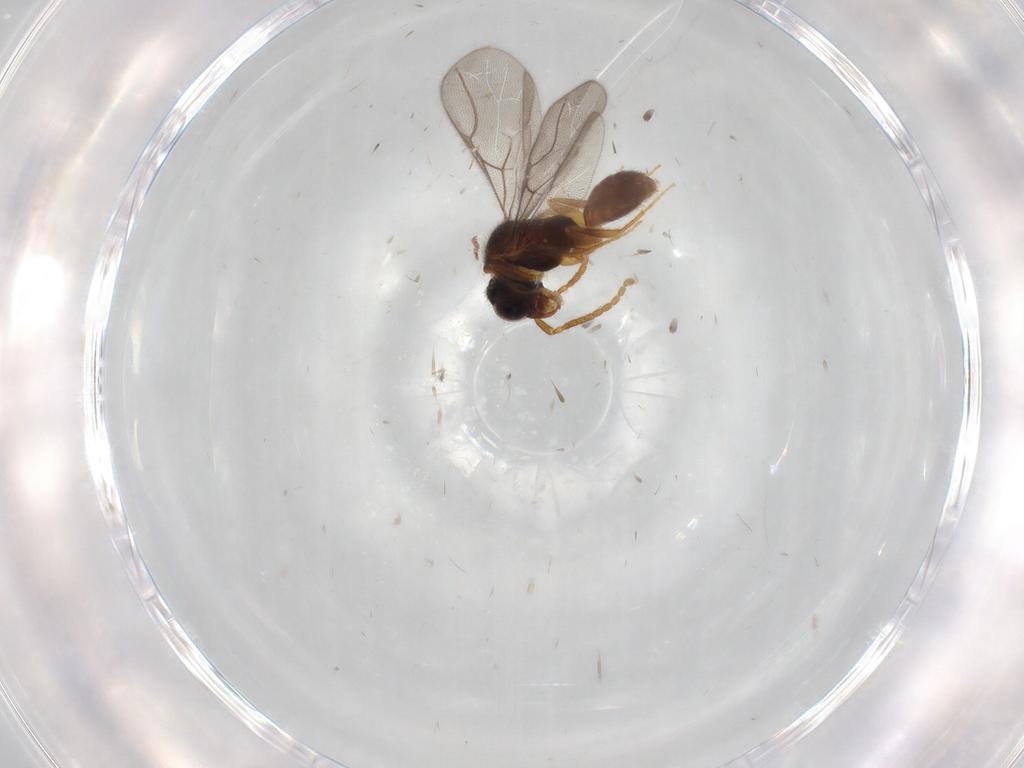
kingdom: Animalia
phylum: Arthropoda
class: Insecta
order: Hymenoptera
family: Bethylidae
